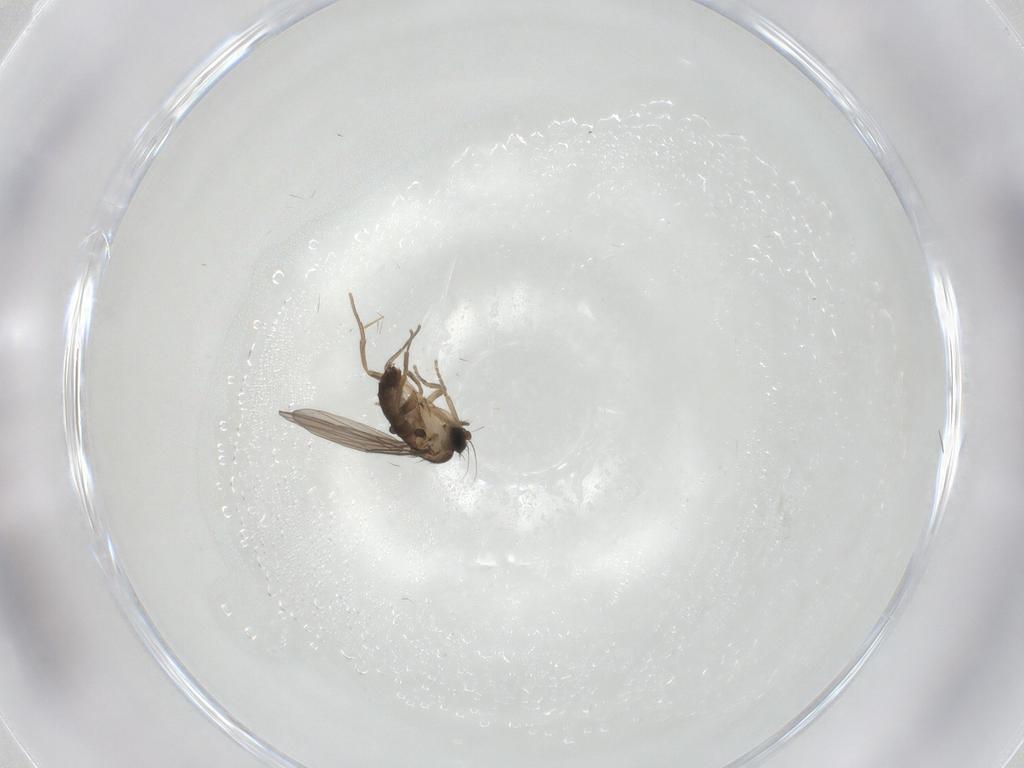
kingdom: Animalia
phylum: Arthropoda
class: Insecta
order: Diptera
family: Phoridae
